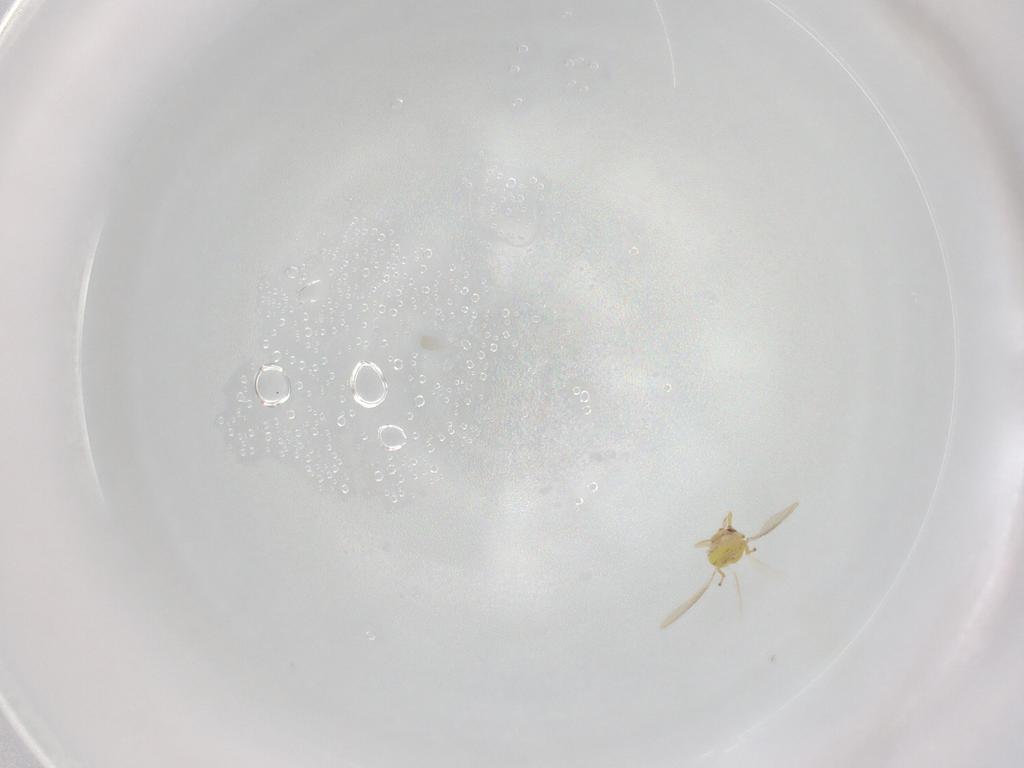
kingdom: Animalia
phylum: Arthropoda
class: Insecta
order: Hymenoptera
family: Eulophidae
